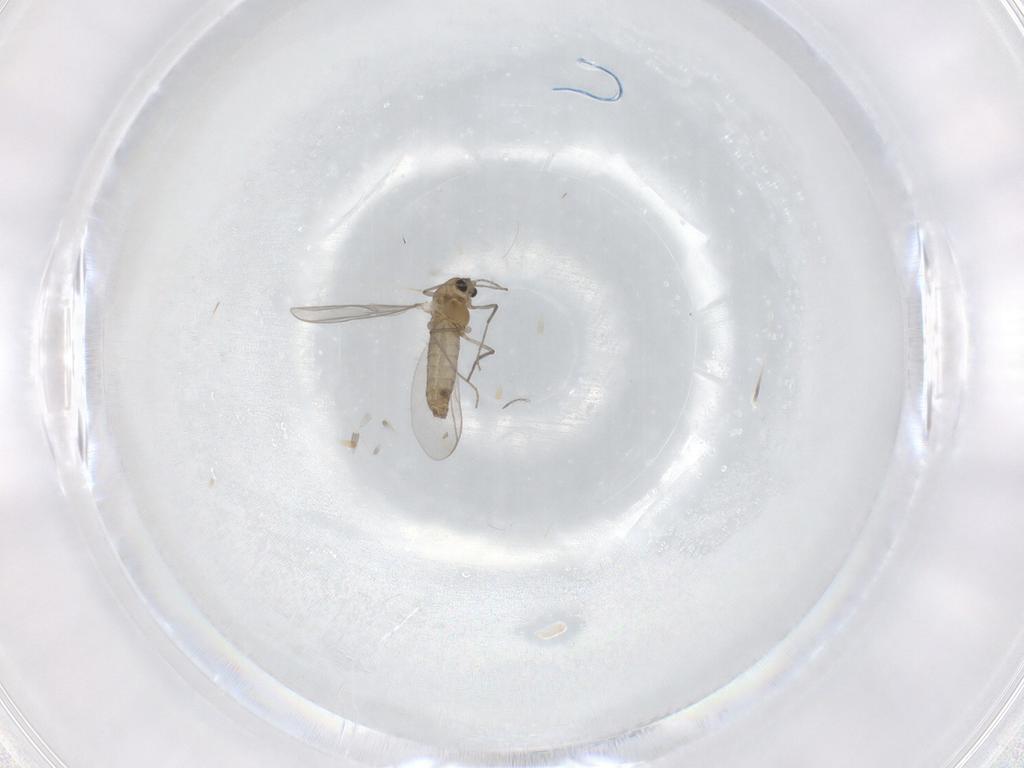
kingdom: Animalia
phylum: Arthropoda
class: Insecta
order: Diptera
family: Chironomidae
